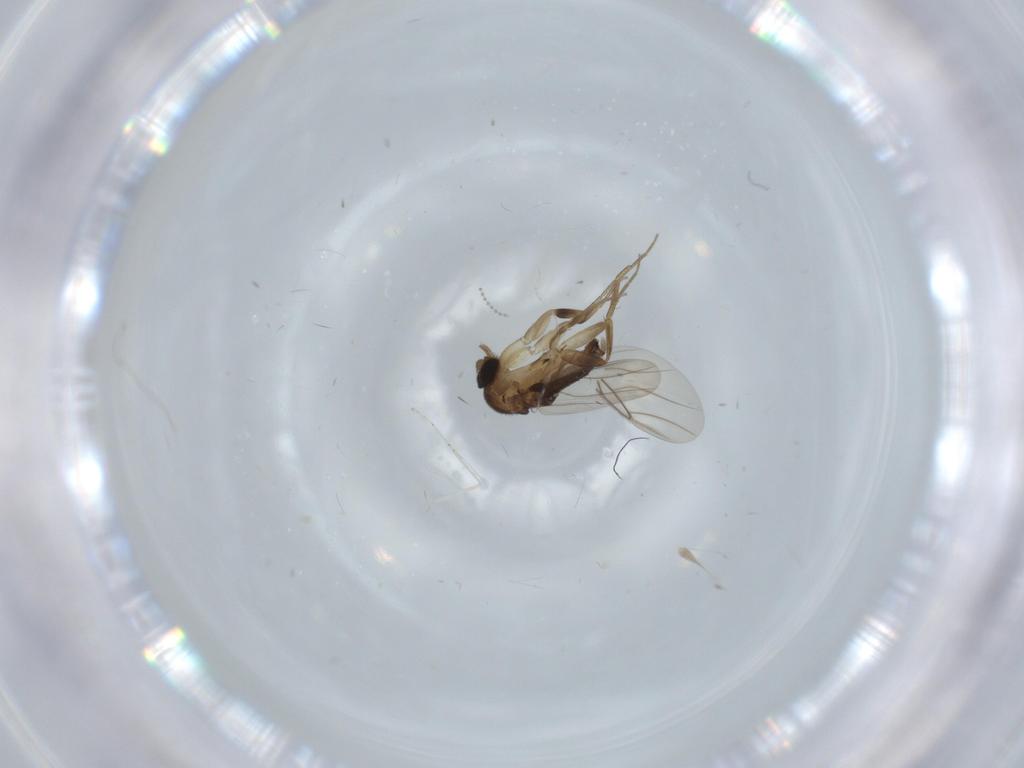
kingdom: Animalia
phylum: Arthropoda
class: Insecta
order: Diptera
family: Phoridae
